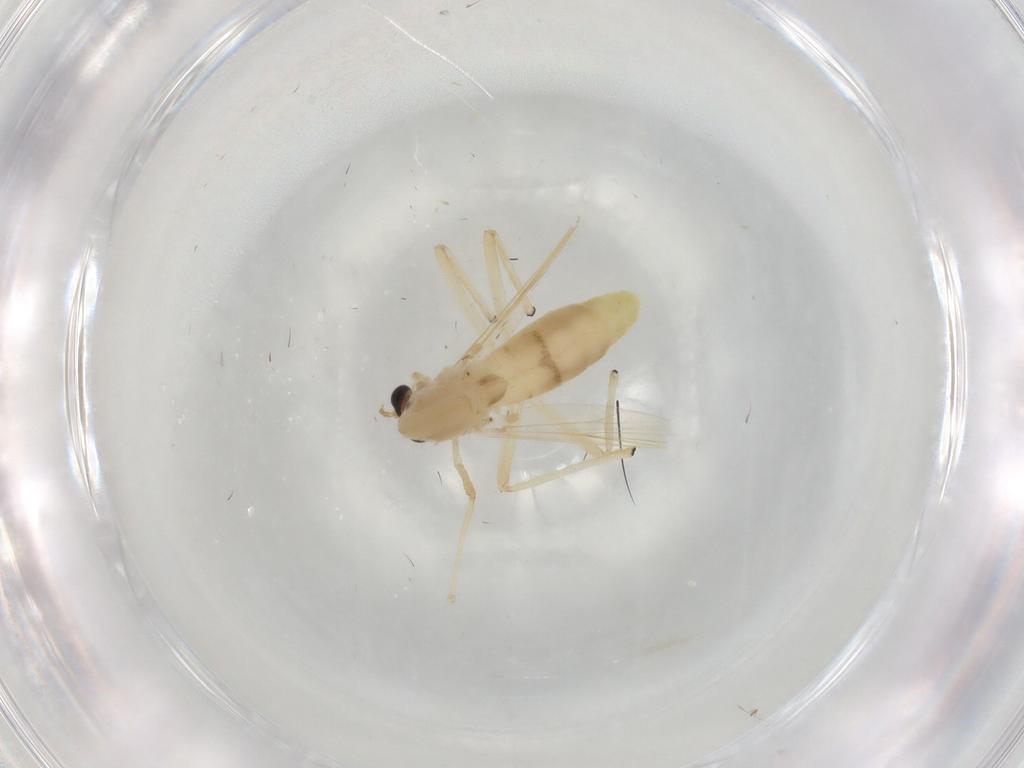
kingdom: Animalia
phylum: Arthropoda
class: Insecta
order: Diptera
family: Chironomidae
